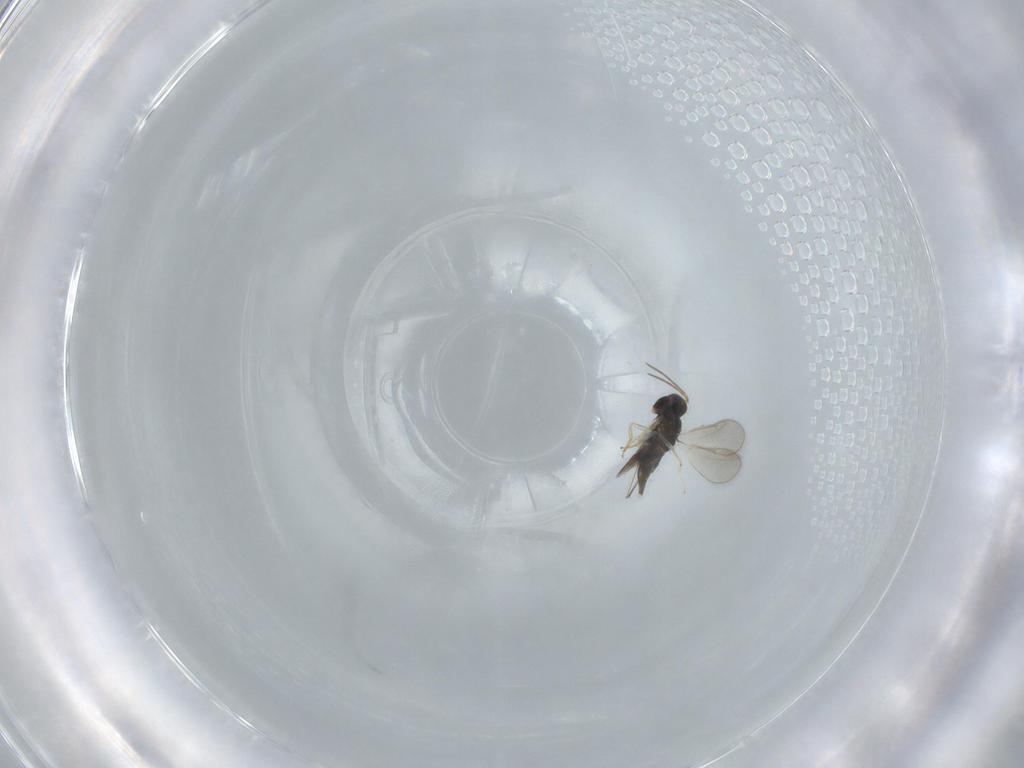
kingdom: Animalia
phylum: Arthropoda
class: Insecta
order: Hymenoptera
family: Pteromalidae
